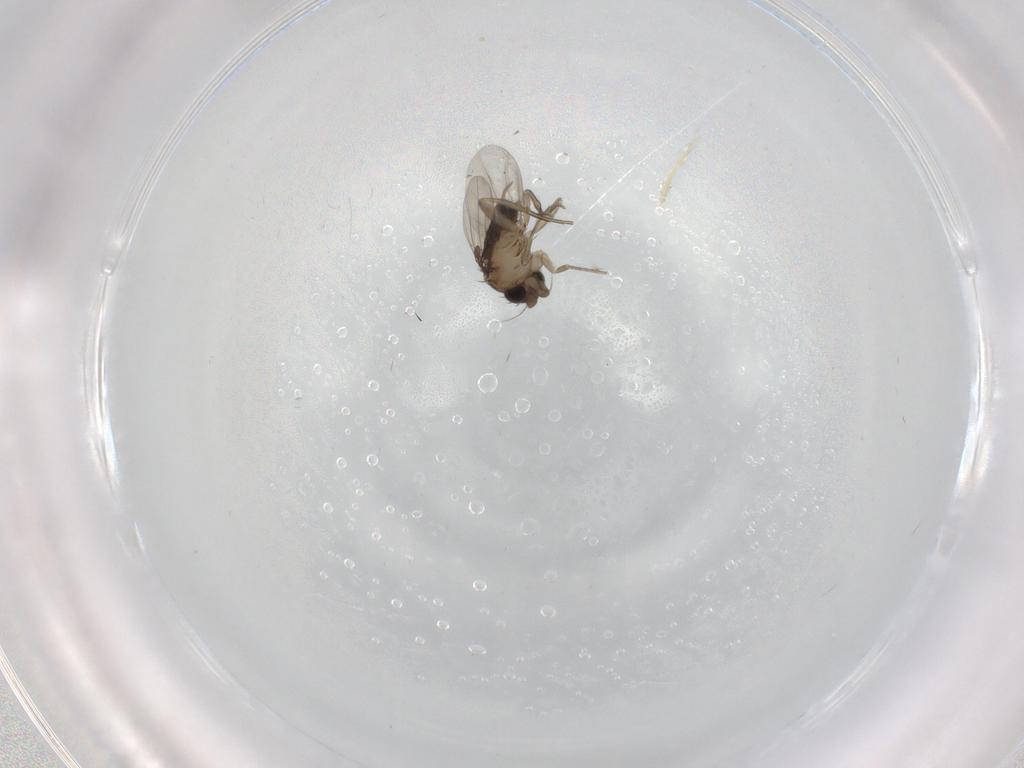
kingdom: Animalia
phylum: Arthropoda
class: Insecta
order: Diptera
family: Phoridae
